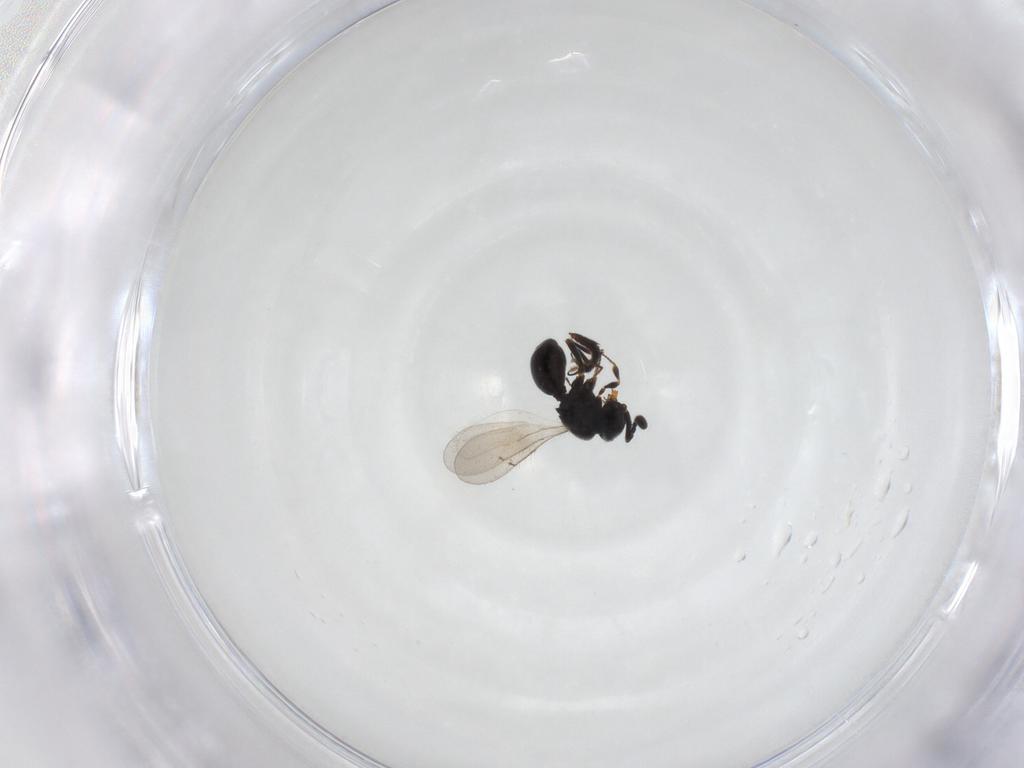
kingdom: Animalia
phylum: Arthropoda
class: Insecta
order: Hymenoptera
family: Scelionidae
